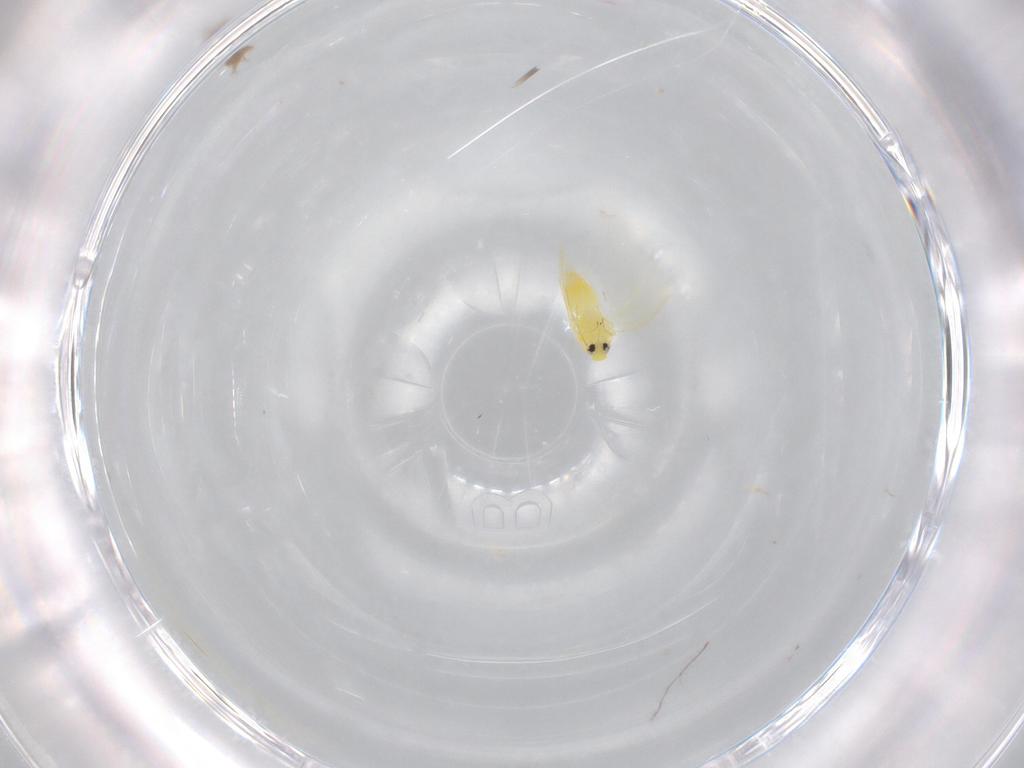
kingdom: Animalia
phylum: Arthropoda
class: Insecta
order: Hemiptera
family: Aleyrodidae
